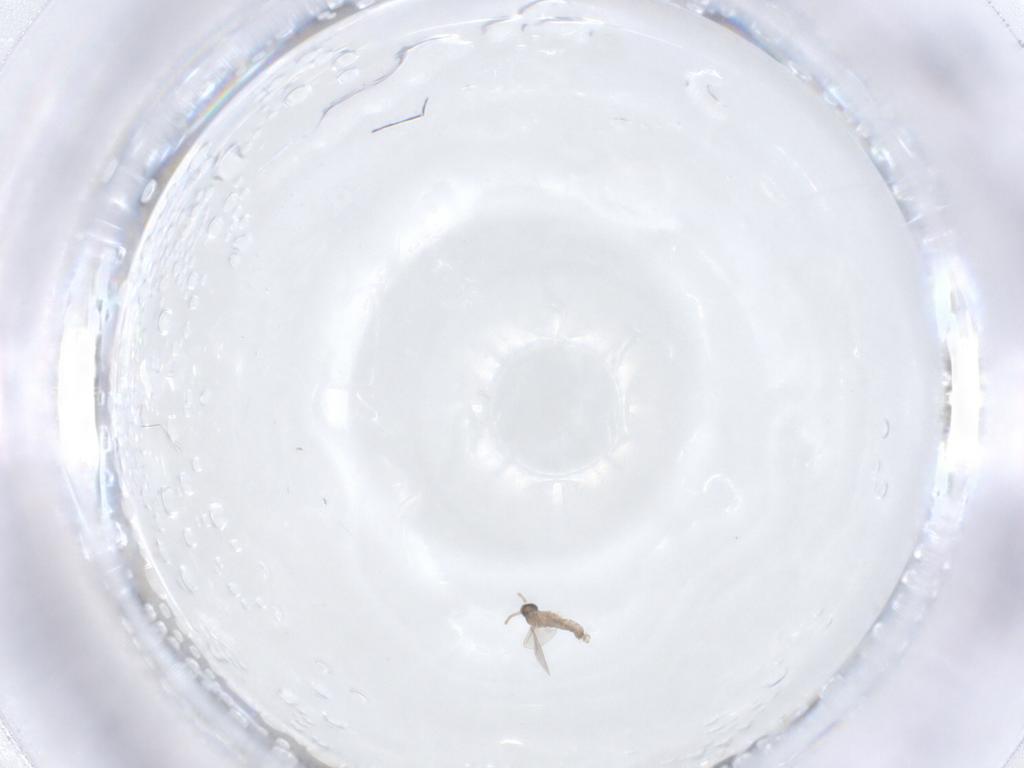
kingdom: Animalia
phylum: Arthropoda
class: Insecta
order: Diptera
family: Cecidomyiidae
